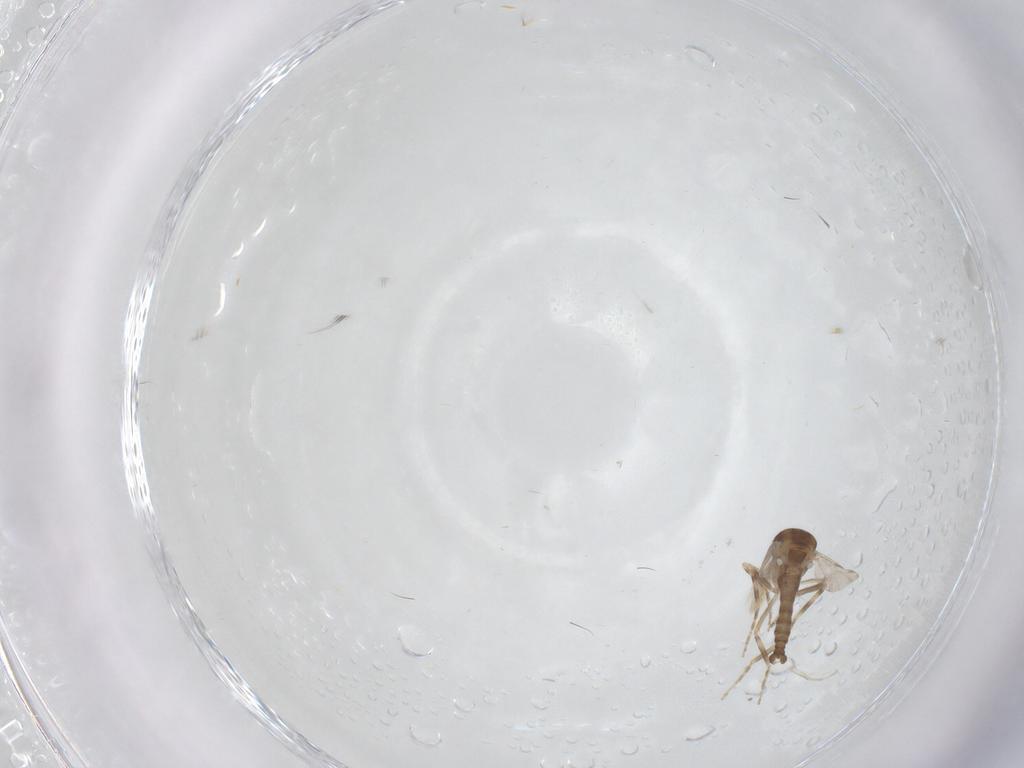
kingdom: Animalia
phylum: Arthropoda
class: Insecta
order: Diptera
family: Ceratopogonidae
